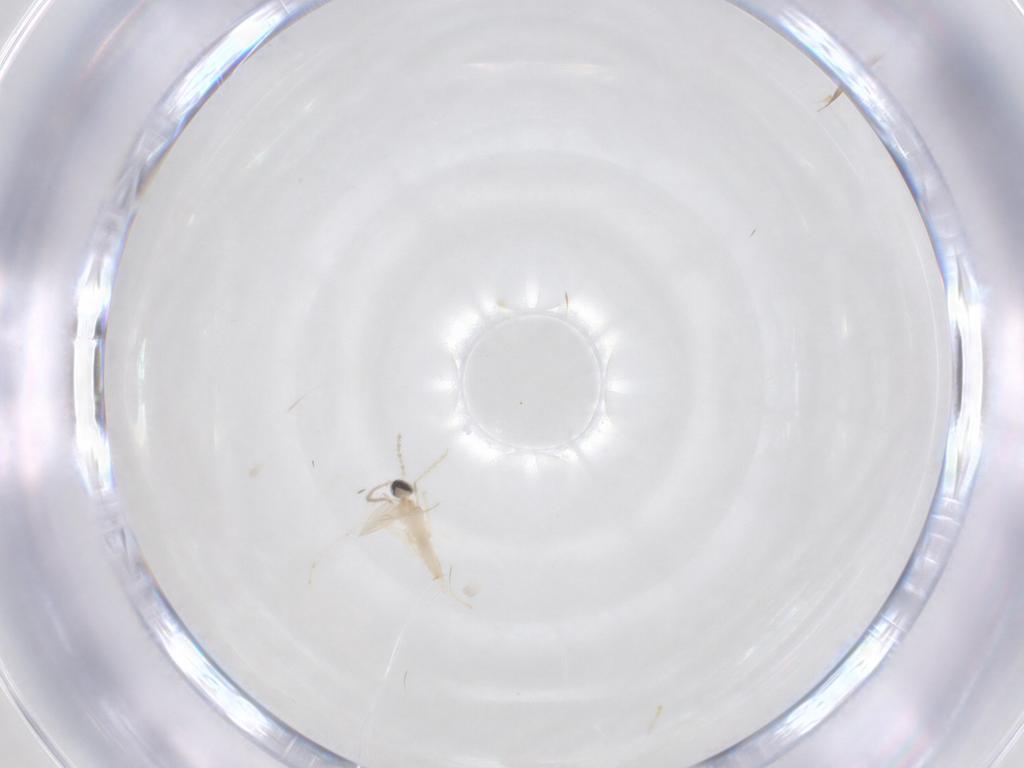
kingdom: Animalia
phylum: Arthropoda
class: Insecta
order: Diptera
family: Cecidomyiidae
